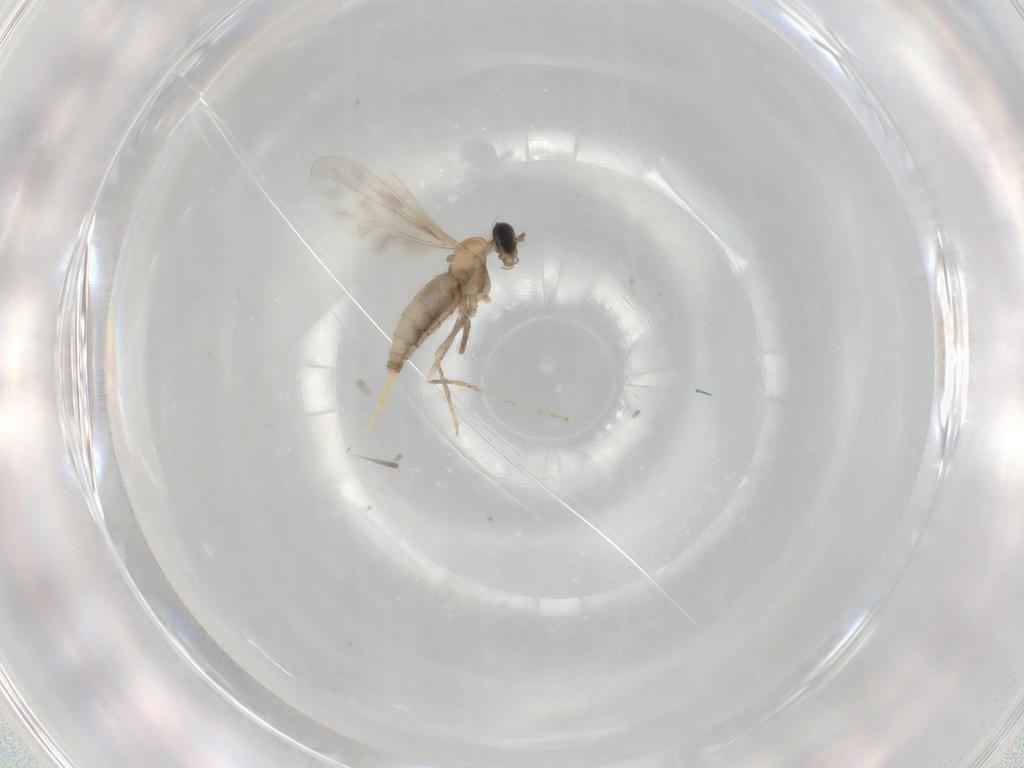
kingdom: Animalia
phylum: Arthropoda
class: Insecta
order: Diptera
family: Cecidomyiidae
